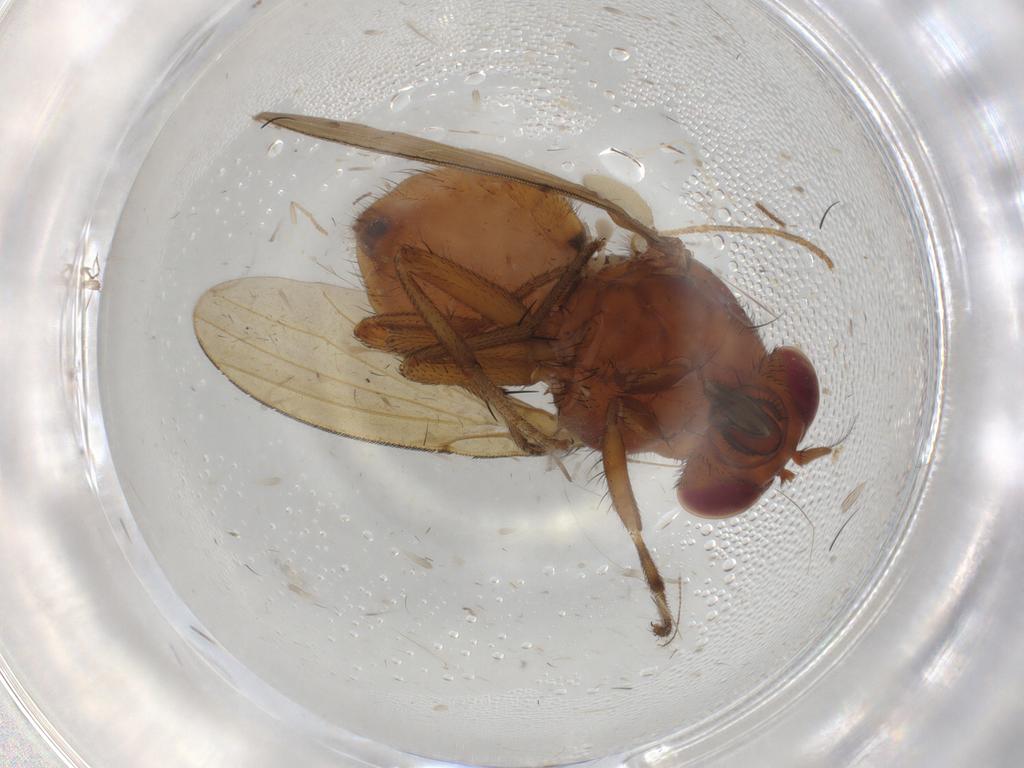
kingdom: Animalia
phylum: Arthropoda
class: Insecta
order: Diptera
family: Lauxaniidae
